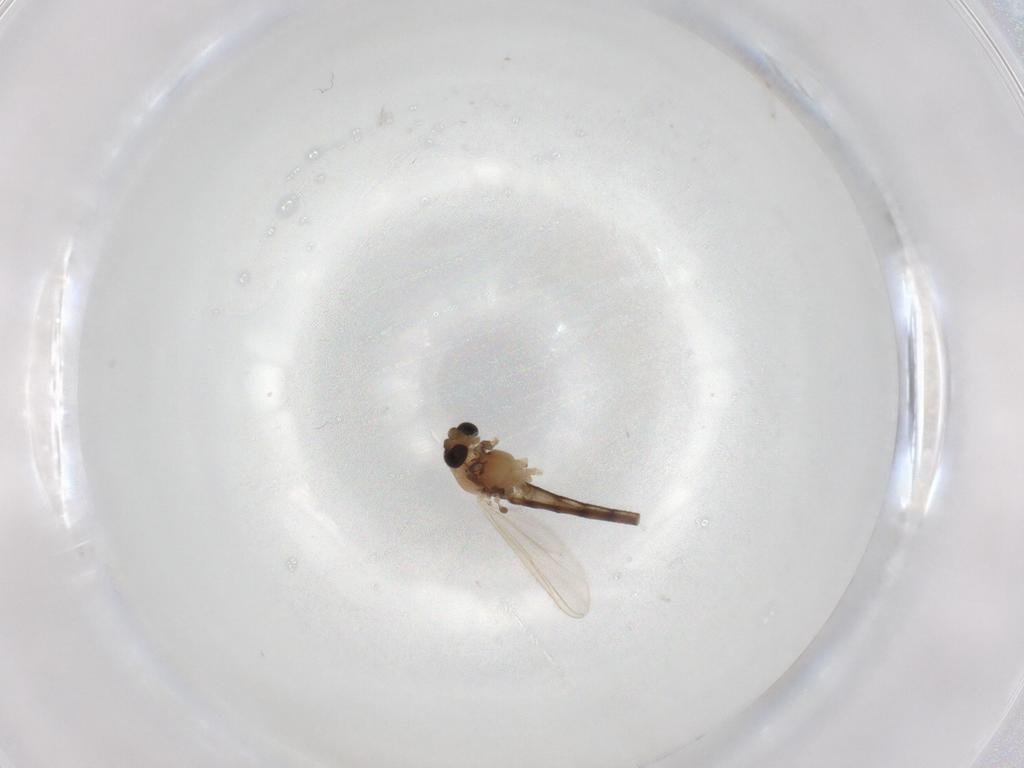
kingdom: Animalia
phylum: Arthropoda
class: Insecta
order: Diptera
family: Chironomidae
